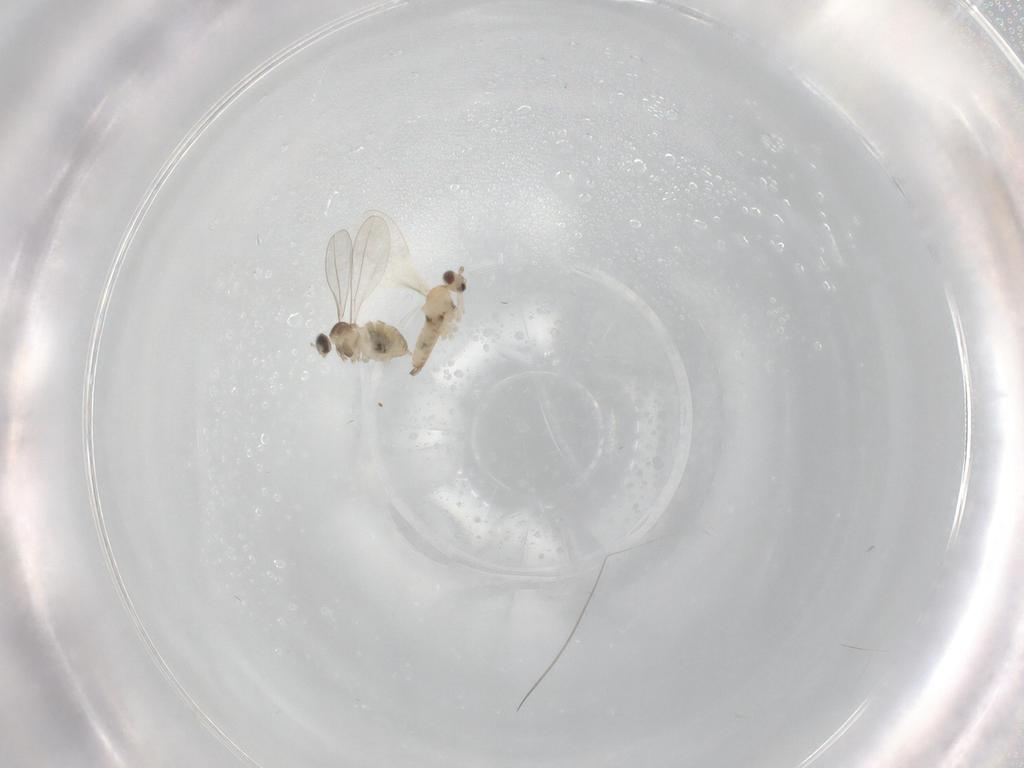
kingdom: Animalia
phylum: Arthropoda
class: Insecta
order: Diptera
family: Cecidomyiidae
